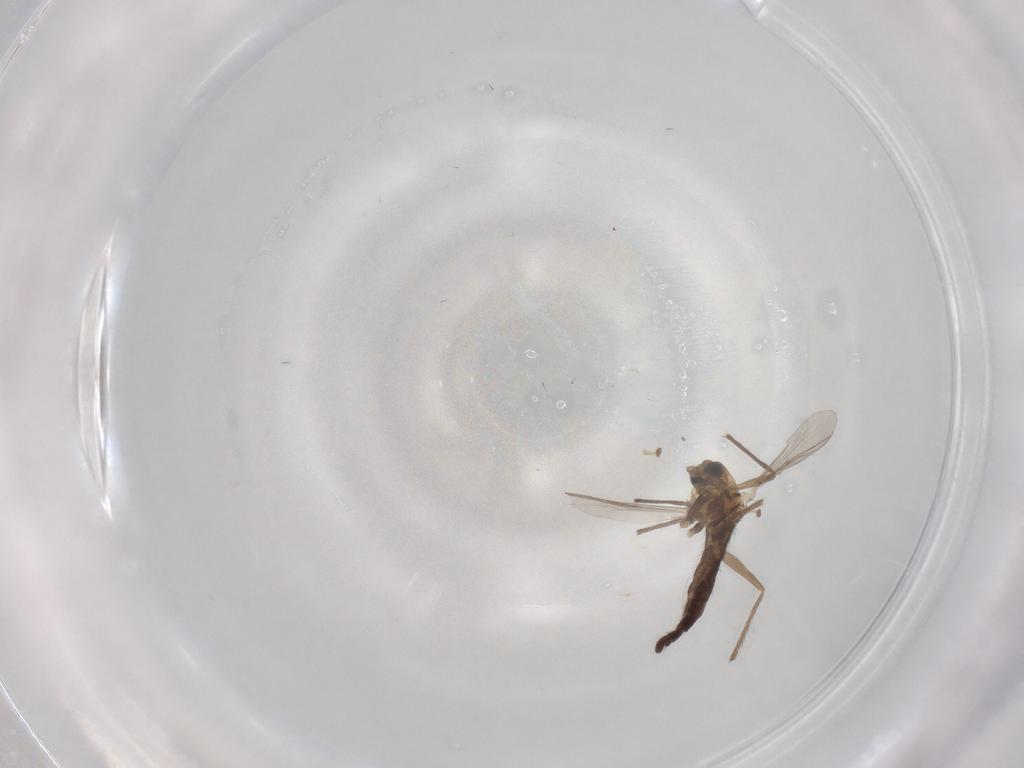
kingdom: Animalia
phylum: Arthropoda
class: Insecta
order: Diptera
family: Chironomidae
